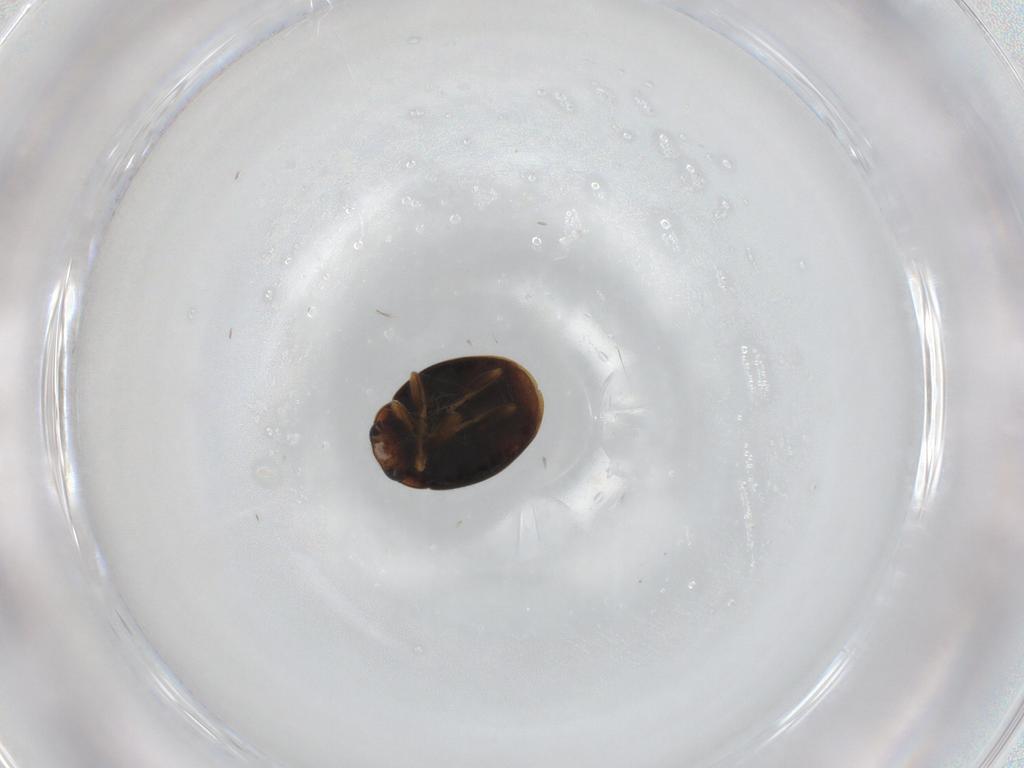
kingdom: Animalia
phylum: Arthropoda
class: Insecta
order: Coleoptera
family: Coccinellidae
